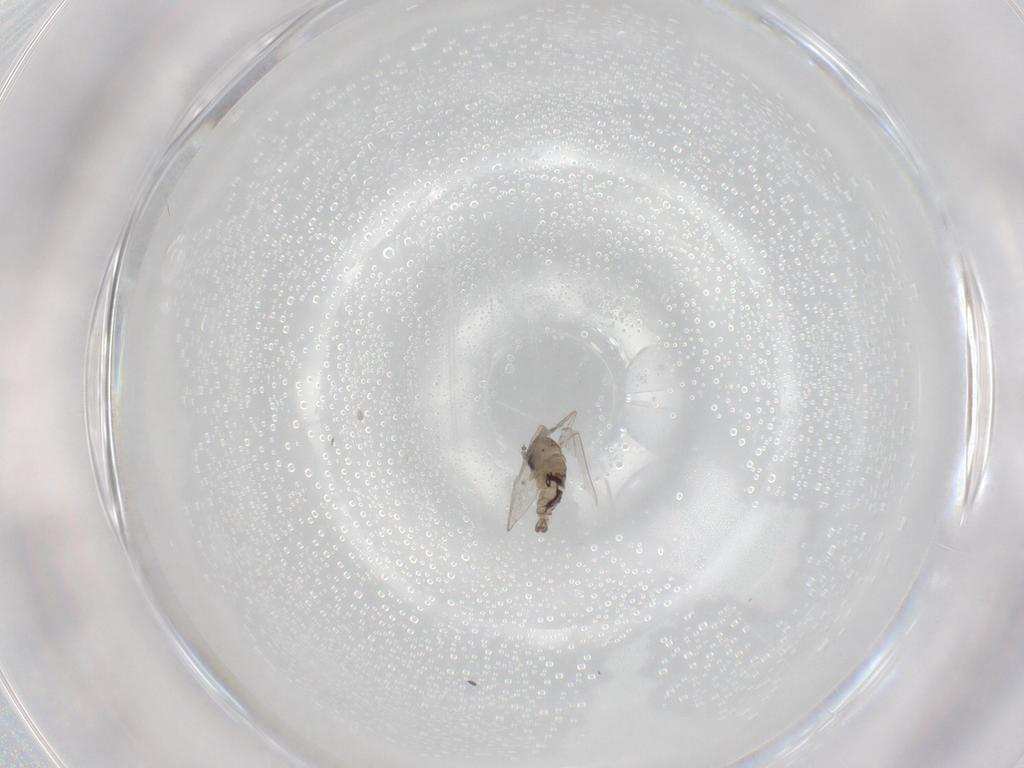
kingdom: Animalia
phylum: Arthropoda
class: Insecta
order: Diptera
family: Psychodidae
